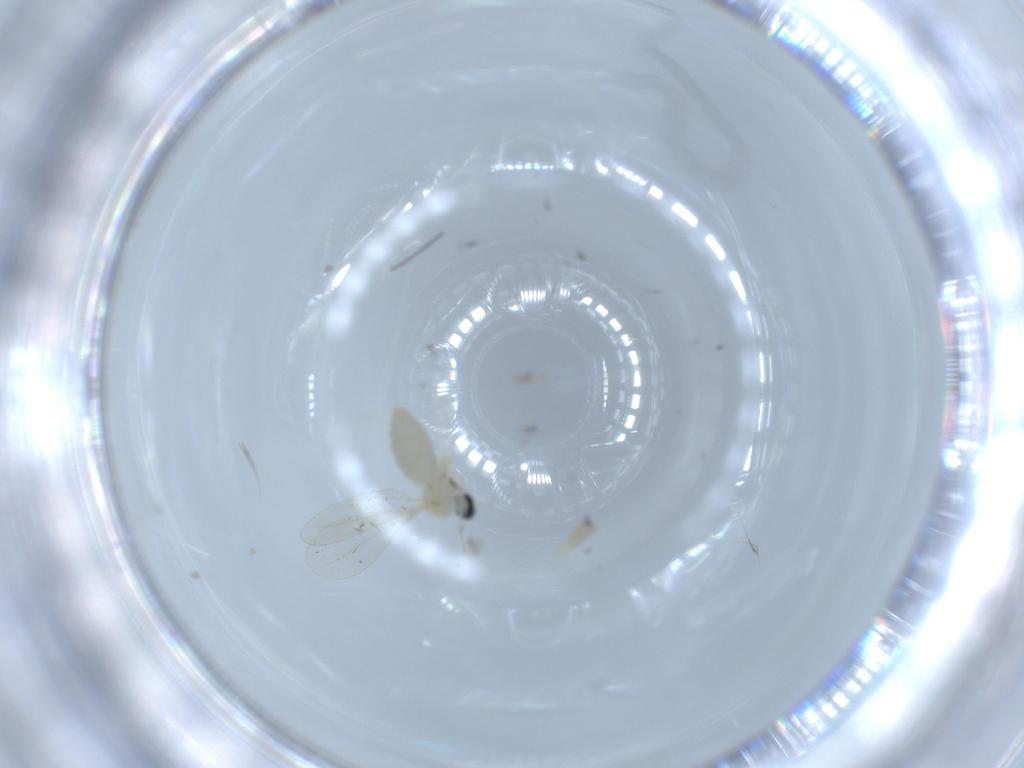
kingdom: Animalia
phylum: Arthropoda
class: Insecta
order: Diptera
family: Cecidomyiidae
